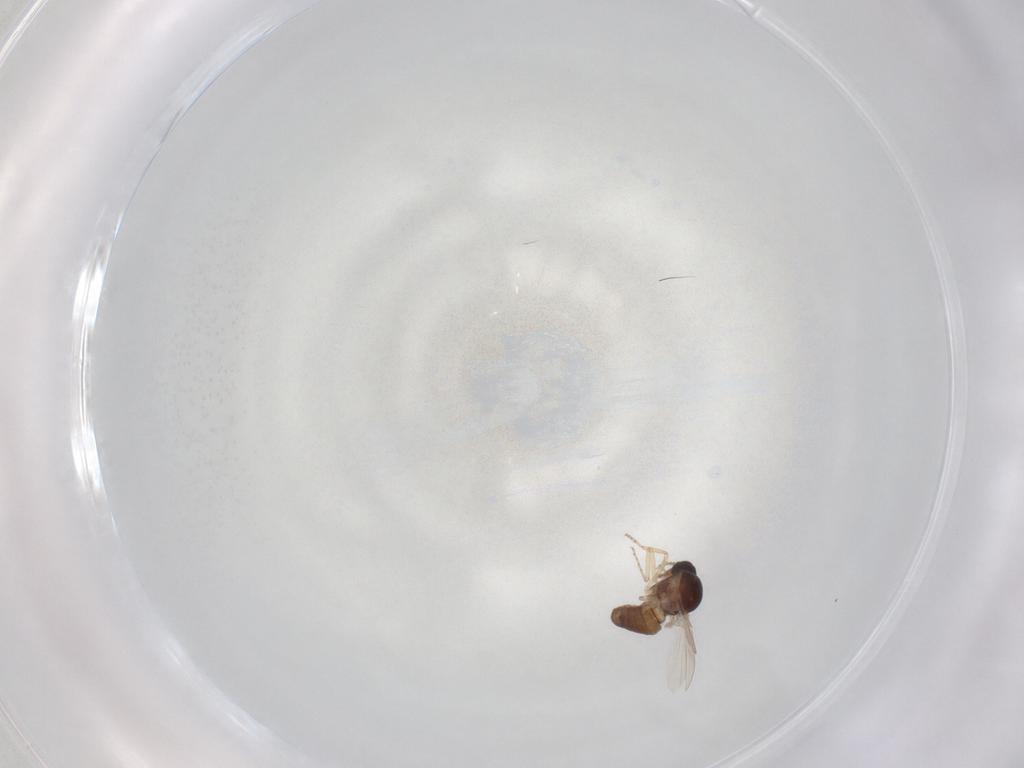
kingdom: Animalia
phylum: Arthropoda
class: Insecta
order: Diptera
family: Ceratopogonidae
